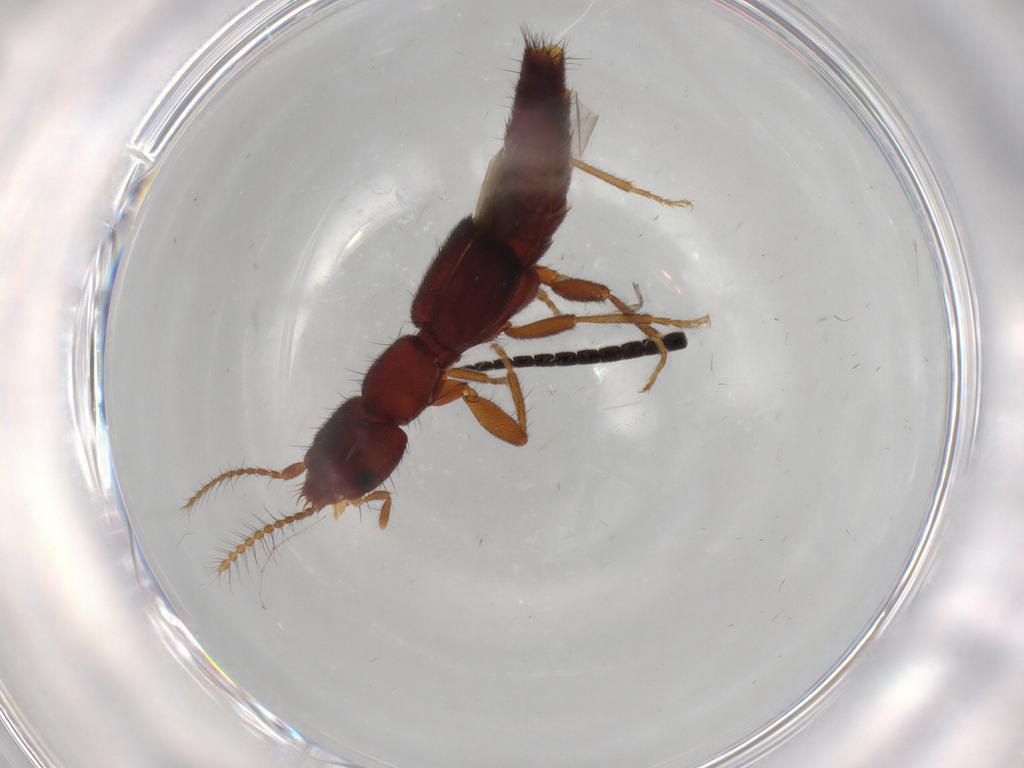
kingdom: Animalia
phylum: Arthropoda
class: Insecta
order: Coleoptera
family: Staphylinidae
